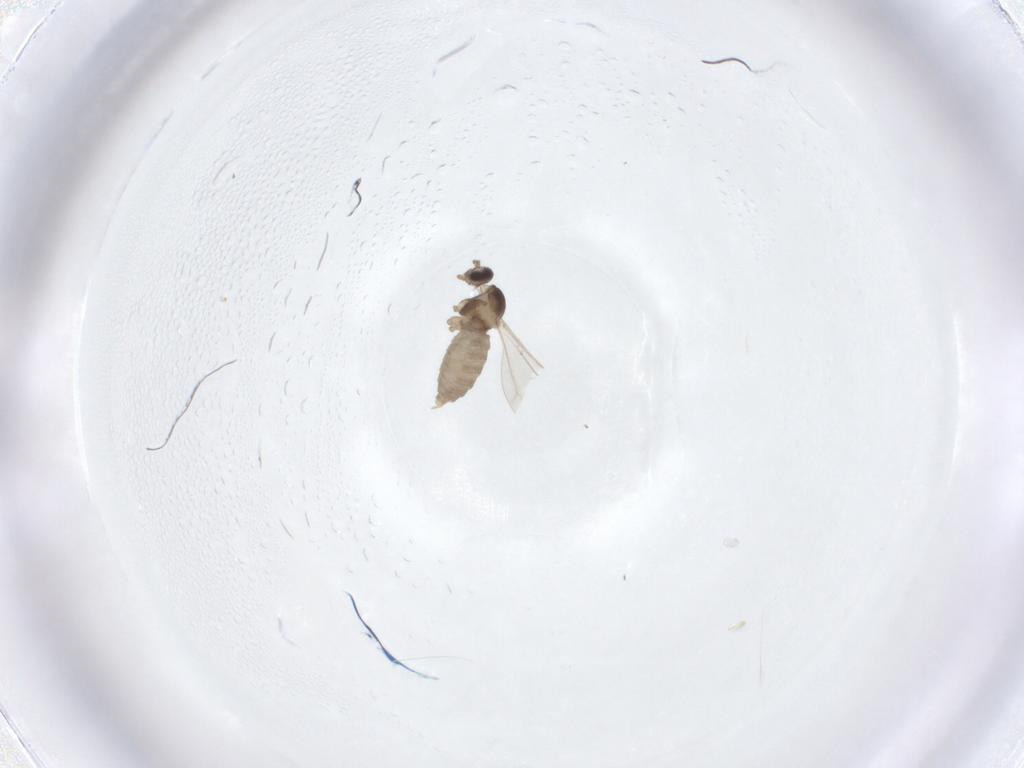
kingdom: Animalia
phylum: Arthropoda
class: Insecta
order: Diptera
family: Cecidomyiidae
